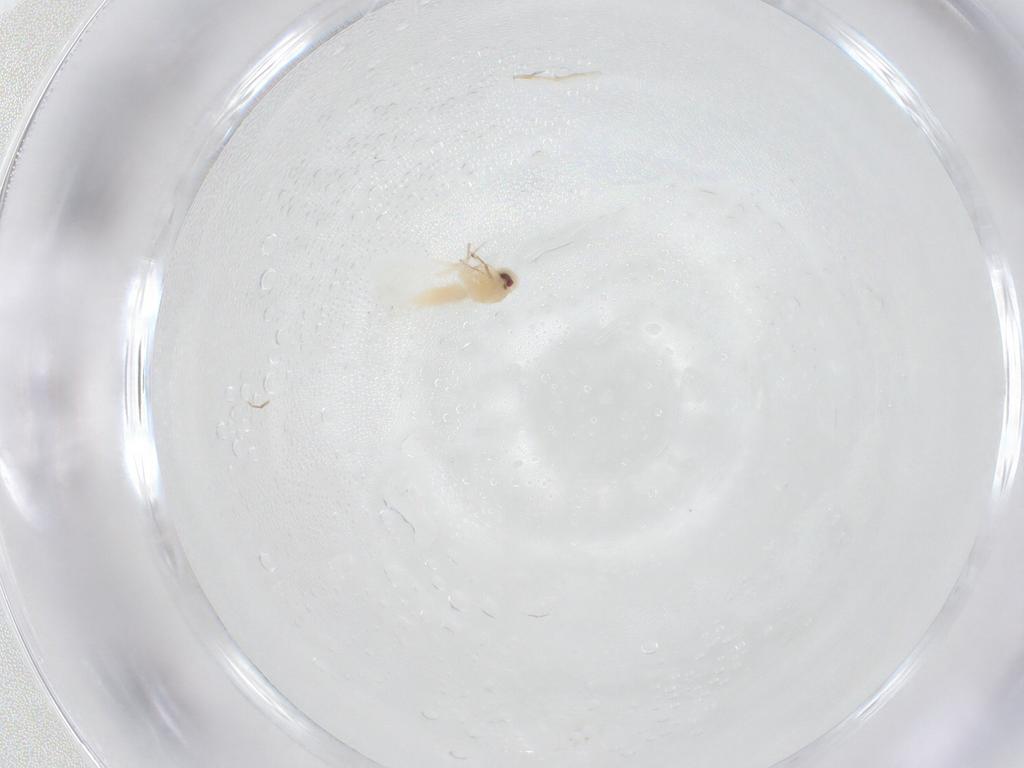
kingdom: Animalia
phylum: Arthropoda
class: Insecta
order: Hemiptera
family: Aleyrodidae
